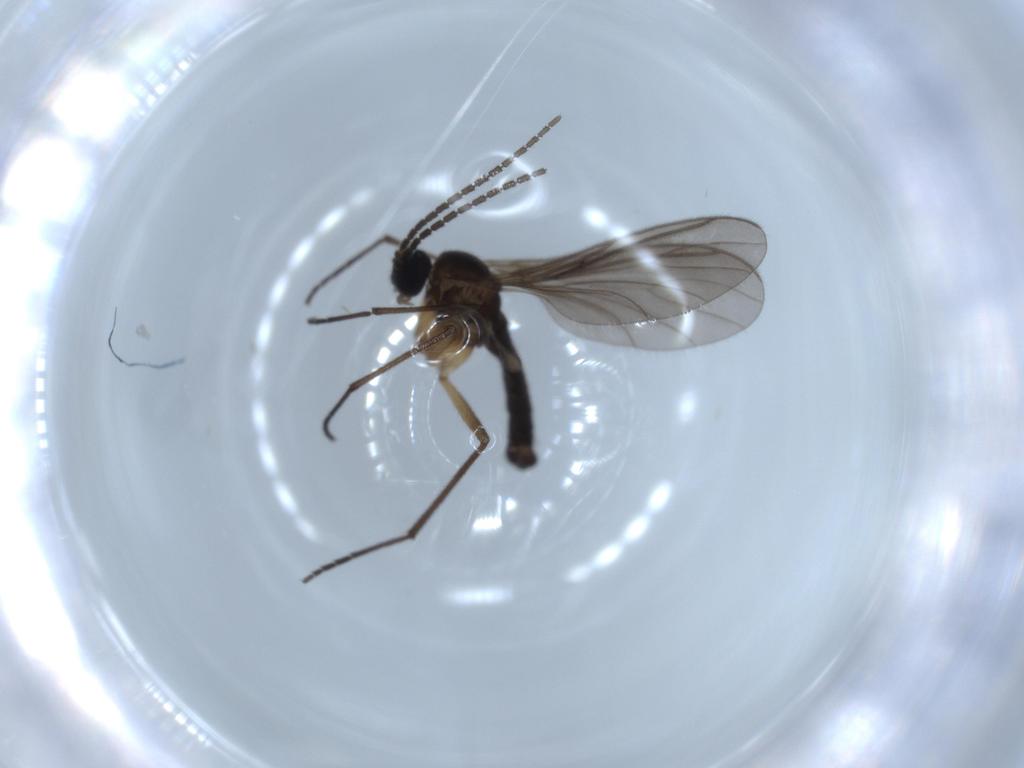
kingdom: Animalia
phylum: Arthropoda
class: Insecta
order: Diptera
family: Sciaridae
